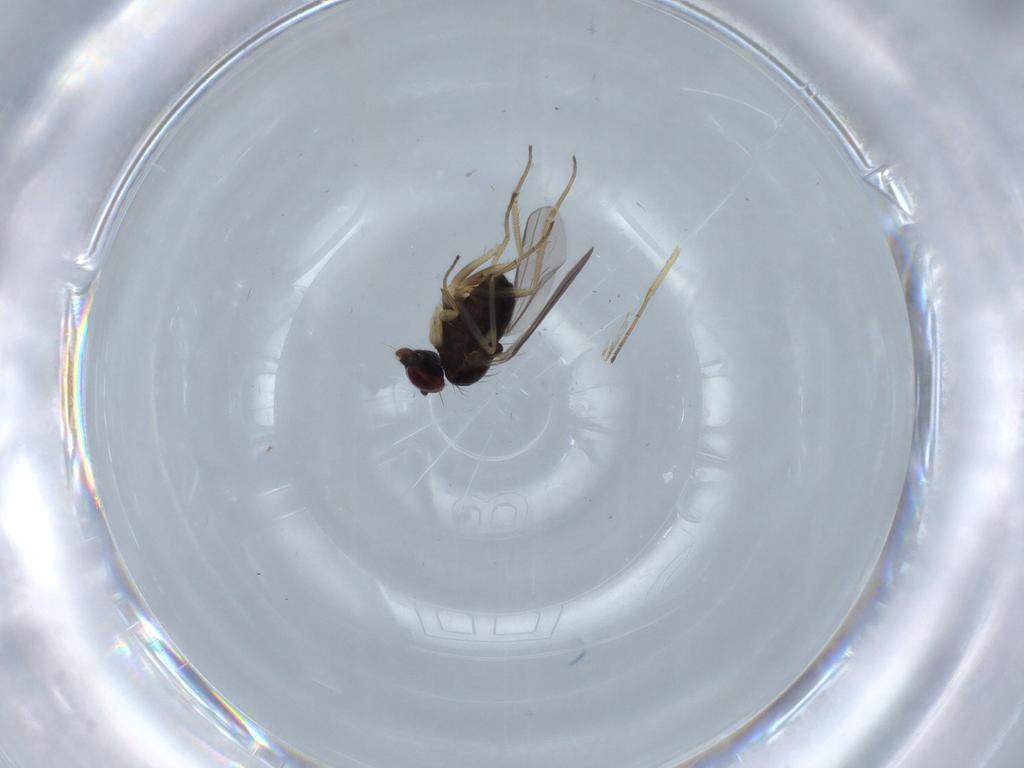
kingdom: Animalia
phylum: Arthropoda
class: Insecta
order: Diptera
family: Dolichopodidae
